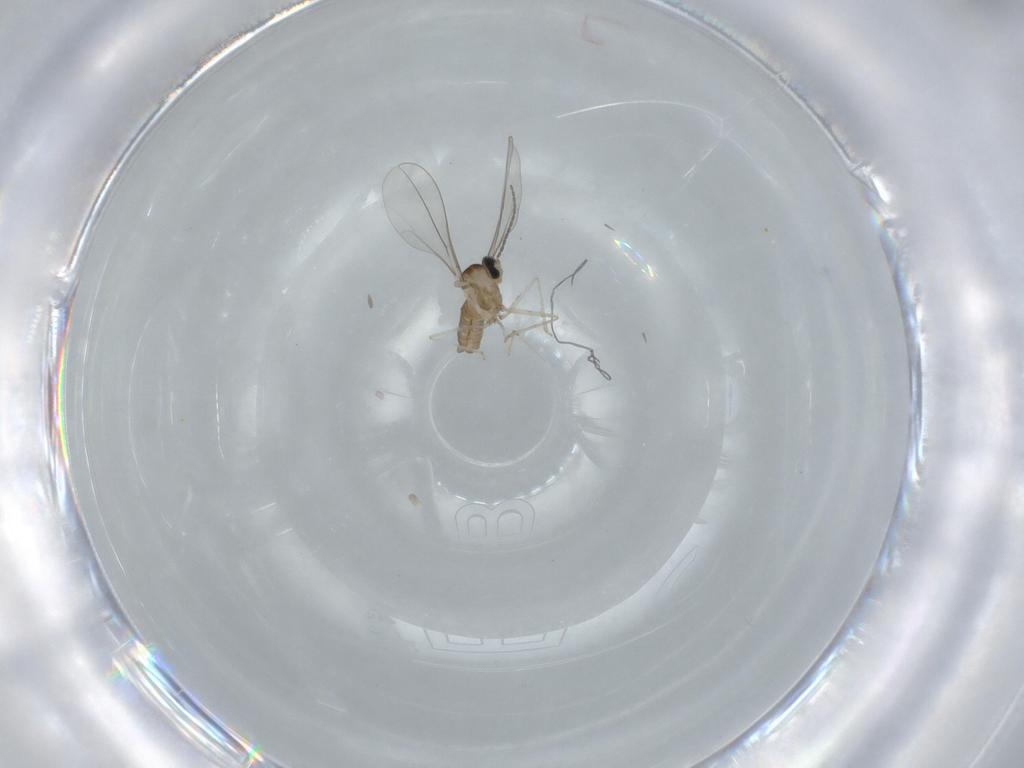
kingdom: Animalia
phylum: Arthropoda
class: Insecta
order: Diptera
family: Cecidomyiidae
